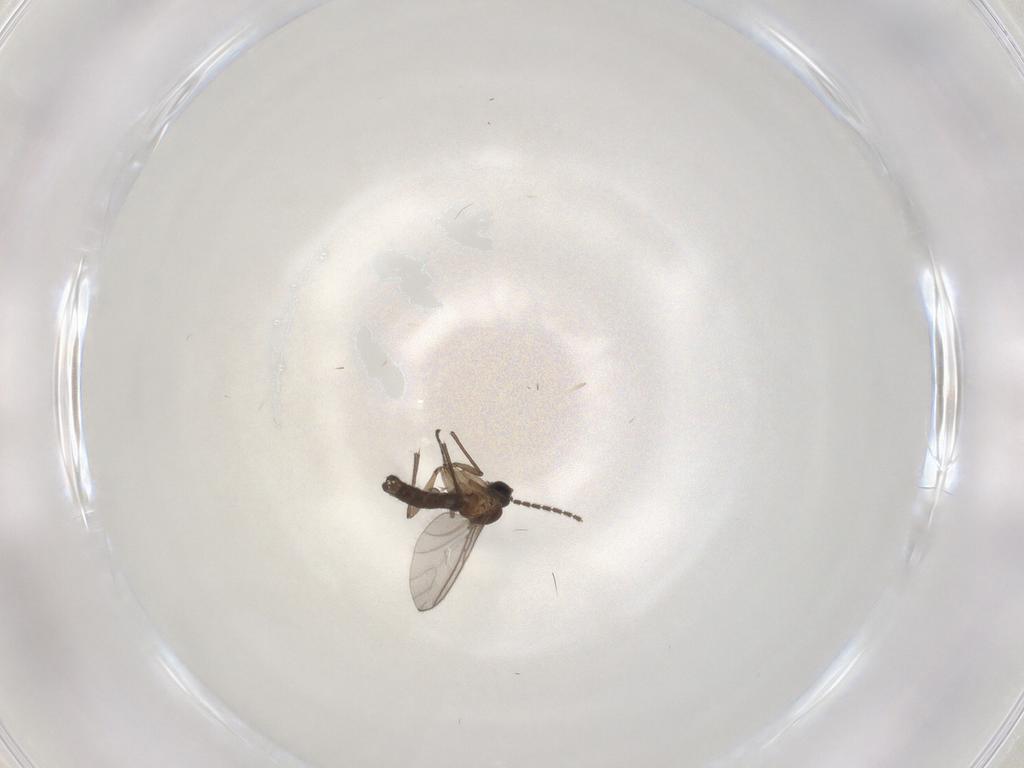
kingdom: Animalia
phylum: Arthropoda
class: Insecta
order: Diptera
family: Sciaridae
